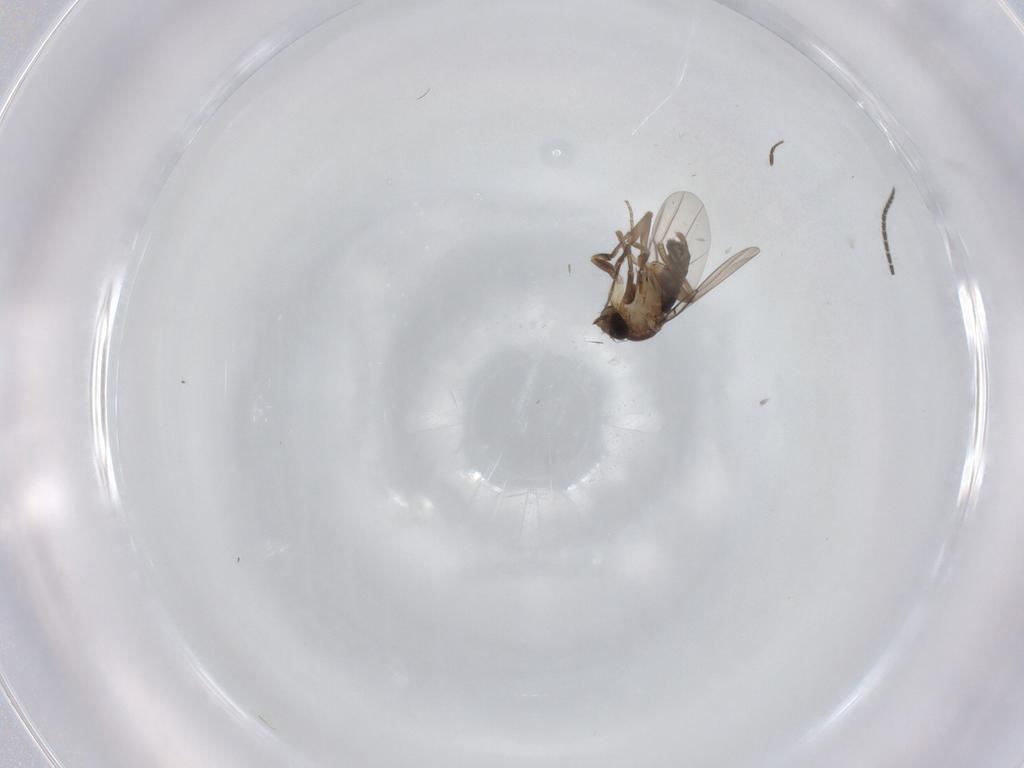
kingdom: Animalia
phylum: Arthropoda
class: Insecta
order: Diptera
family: Phoridae
